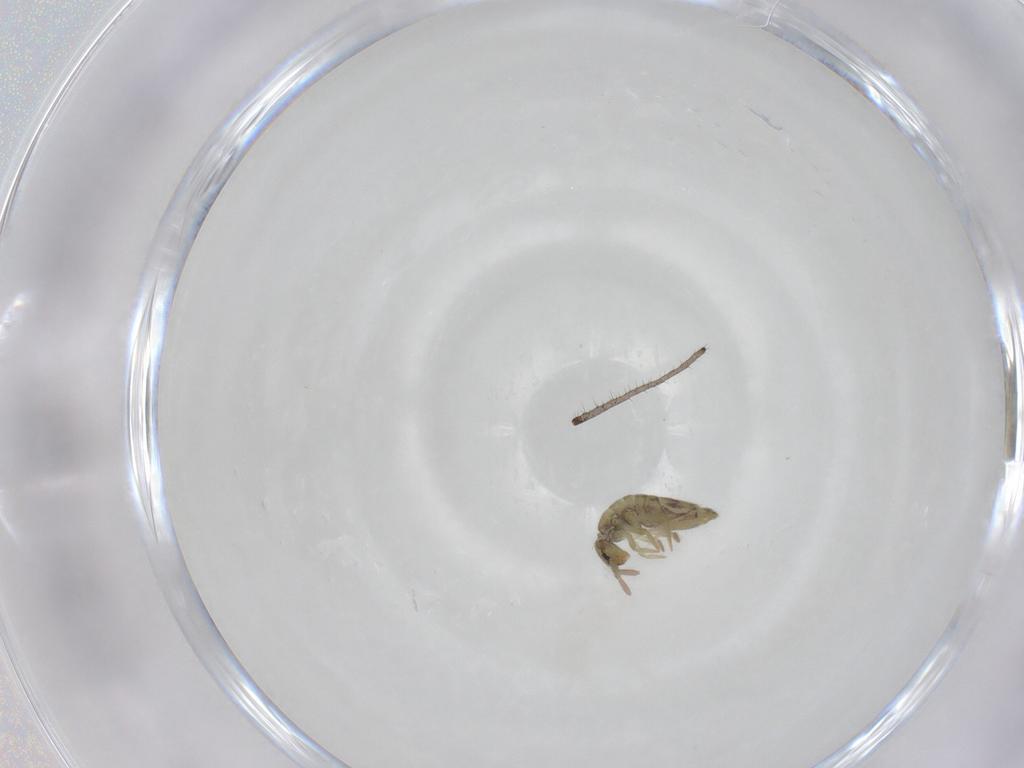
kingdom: Animalia
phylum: Arthropoda
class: Collembola
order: Entomobryomorpha
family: Entomobryidae
